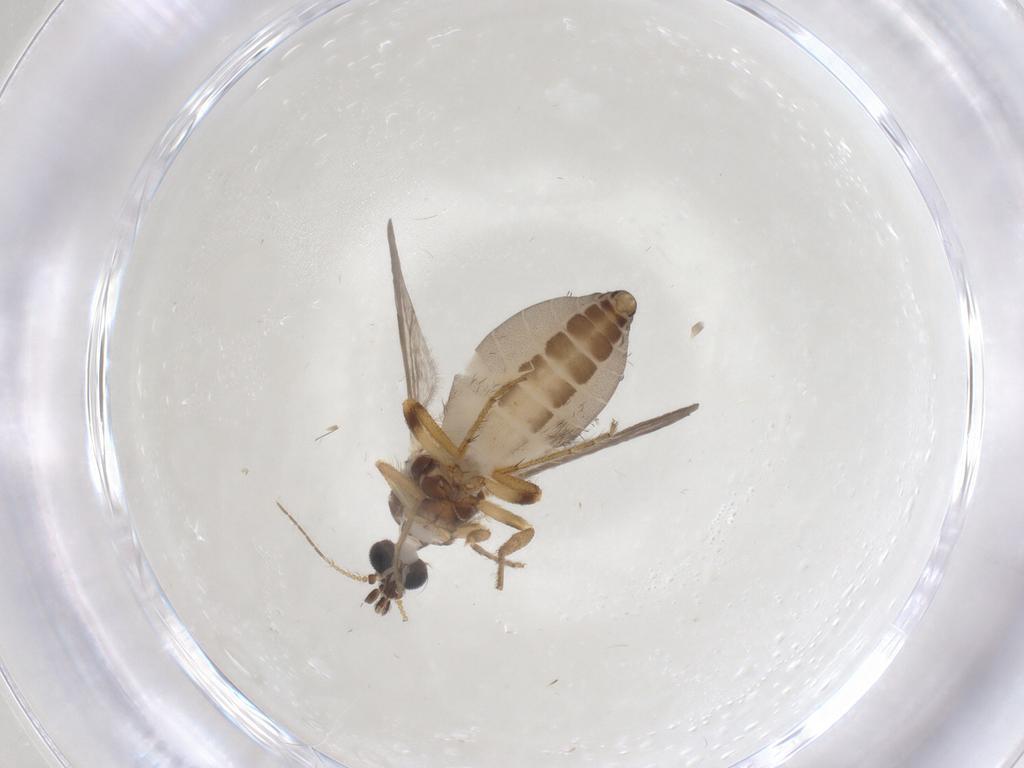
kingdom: Animalia
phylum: Arthropoda
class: Insecta
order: Diptera
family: Ceratopogonidae
